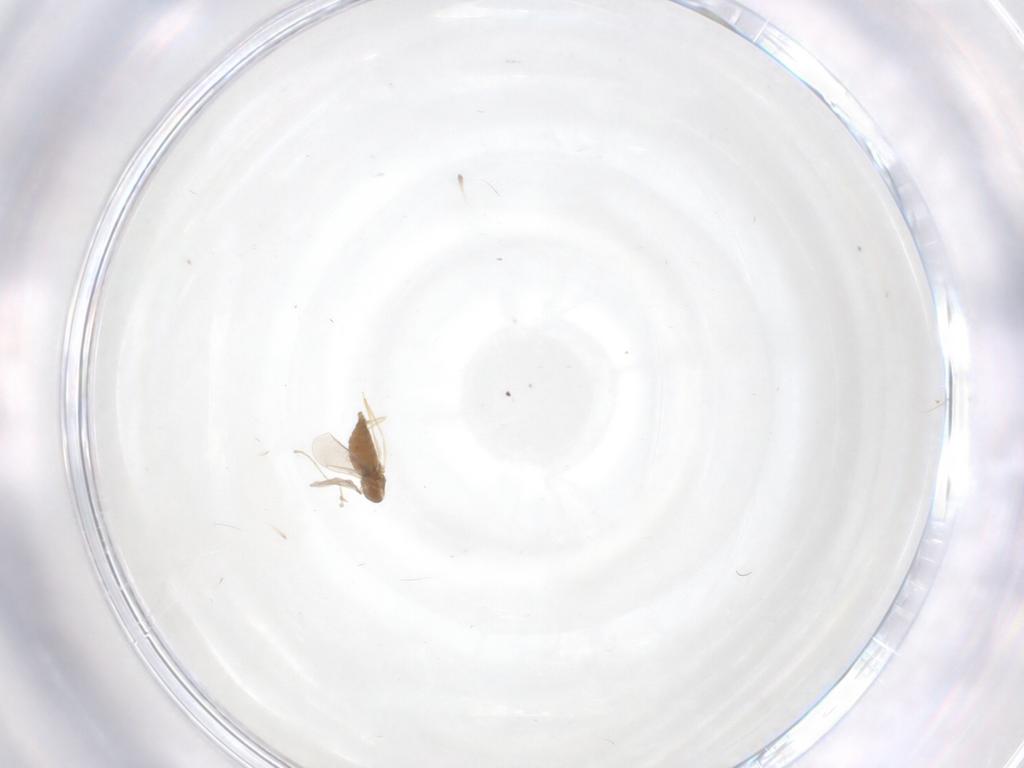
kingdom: Animalia
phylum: Arthropoda
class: Insecta
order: Diptera
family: Cecidomyiidae
